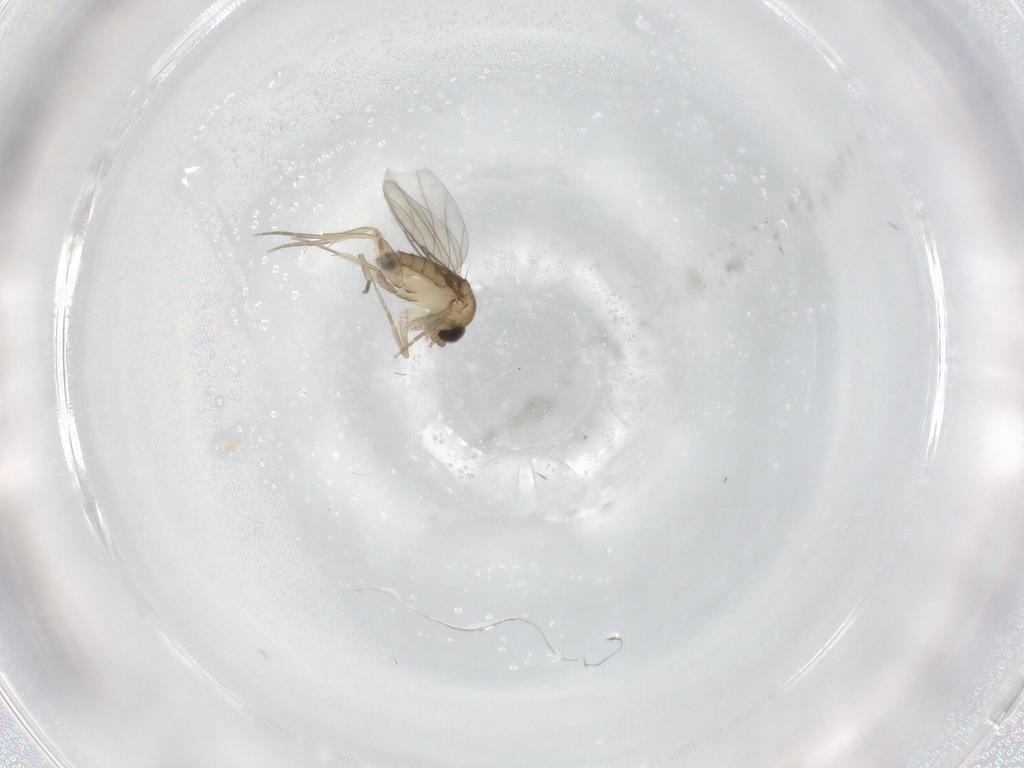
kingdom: Animalia
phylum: Arthropoda
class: Insecta
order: Diptera
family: Phoridae
